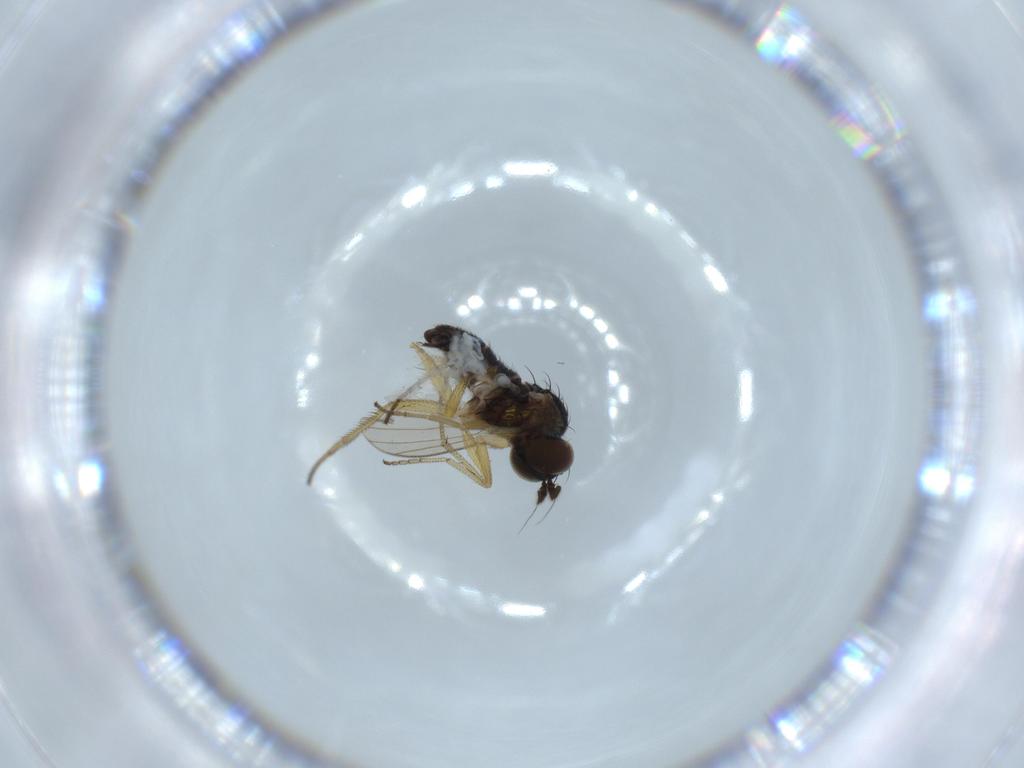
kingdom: Animalia
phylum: Arthropoda
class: Insecta
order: Diptera
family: Dolichopodidae
